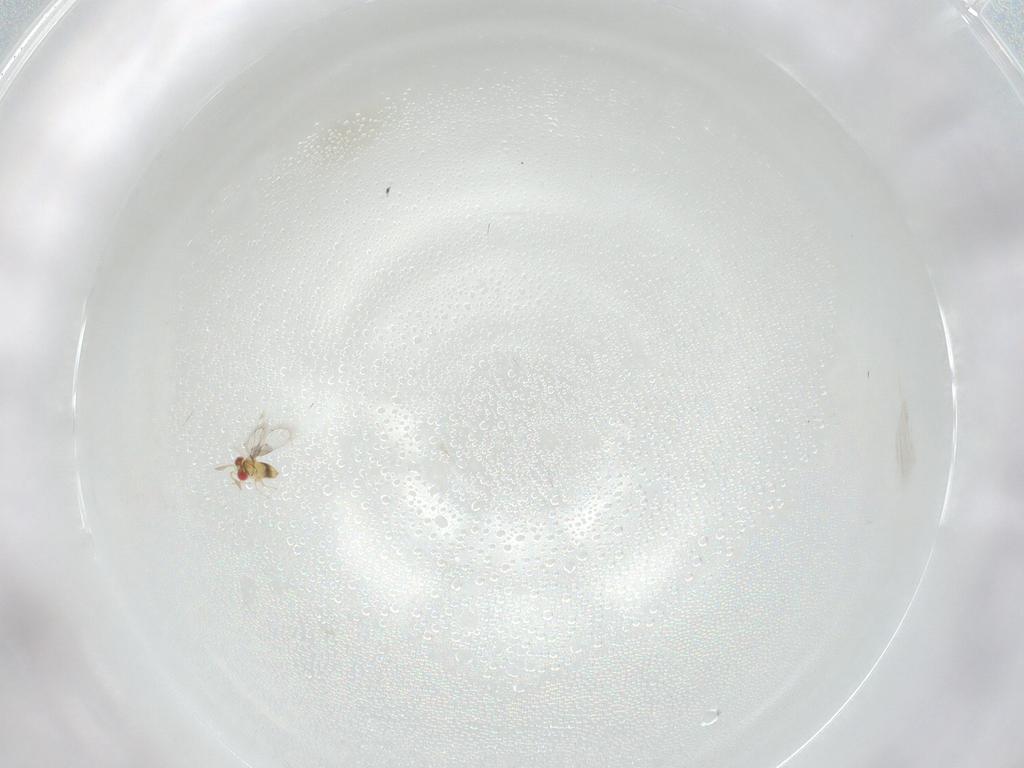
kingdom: Animalia
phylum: Arthropoda
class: Insecta
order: Hymenoptera
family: Trichogrammatidae
